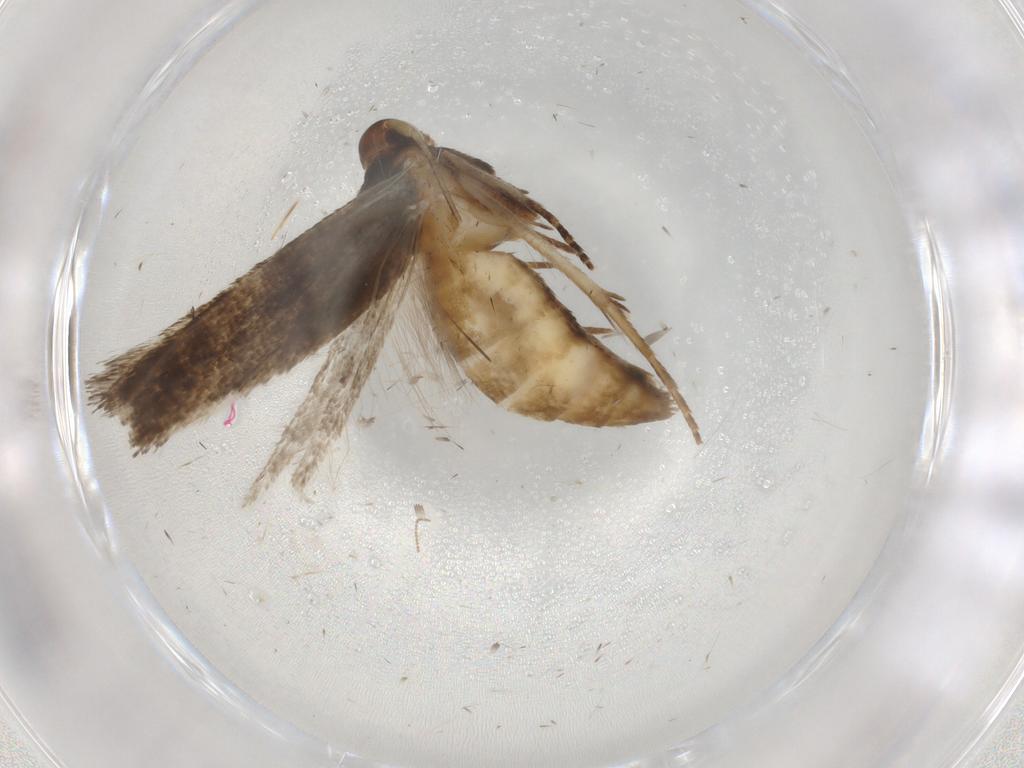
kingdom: Animalia
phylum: Arthropoda
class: Insecta
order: Lepidoptera
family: Cosmopterigidae
